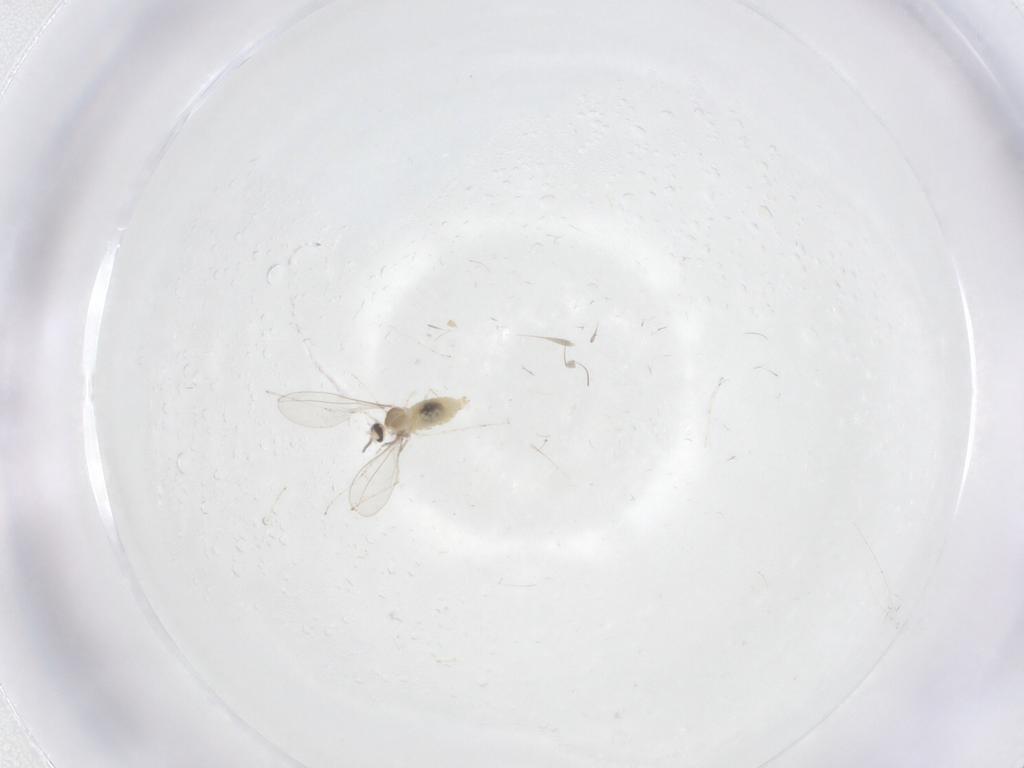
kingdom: Animalia
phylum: Arthropoda
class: Insecta
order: Diptera
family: Cecidomyiidae
